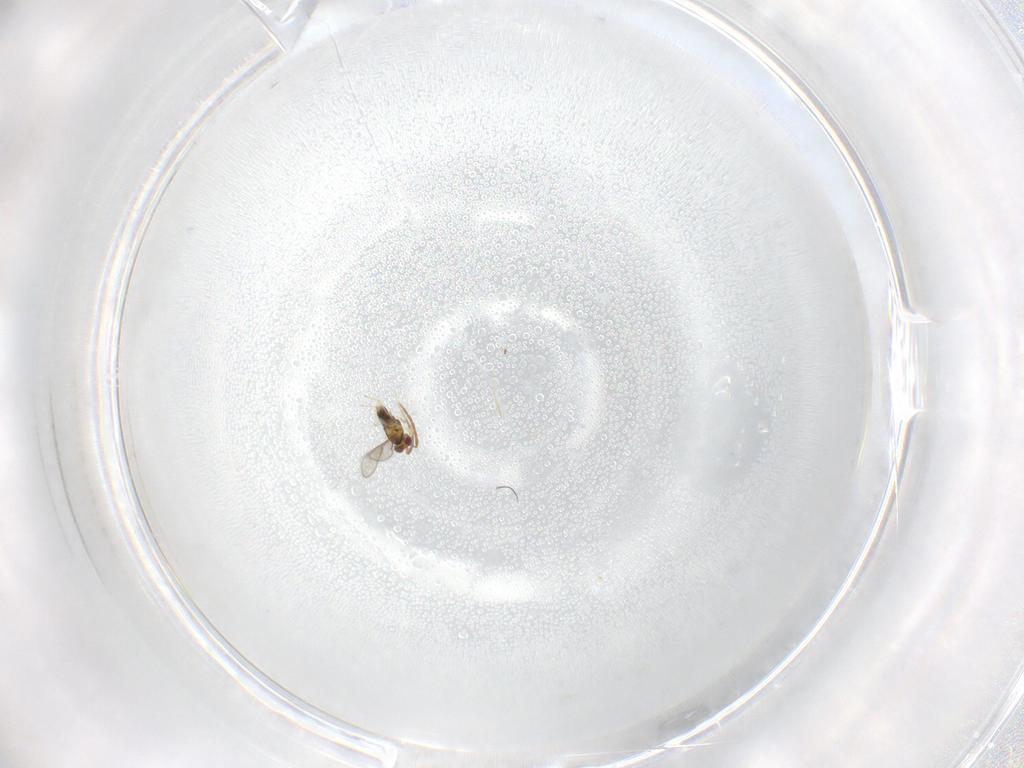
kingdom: Animalia
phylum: Arthropoda
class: Insecta
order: Hymenoptera
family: Aphelinidae
